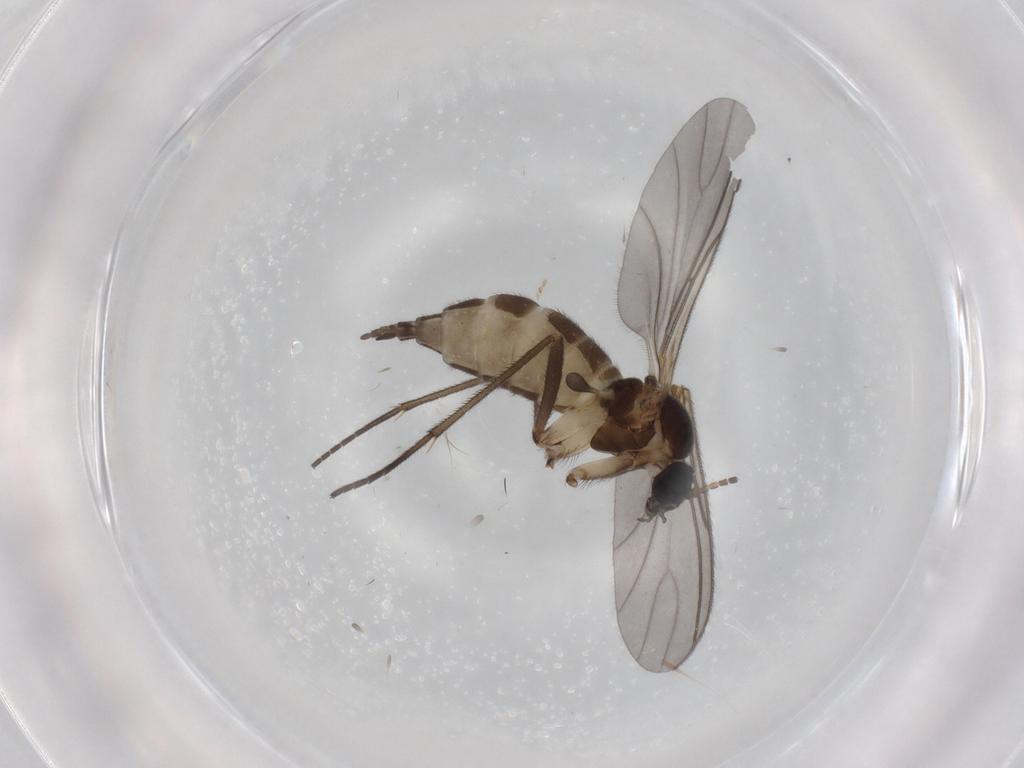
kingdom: Animalia
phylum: Arthropoda
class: Insecta
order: Diptera
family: Sciaridae
